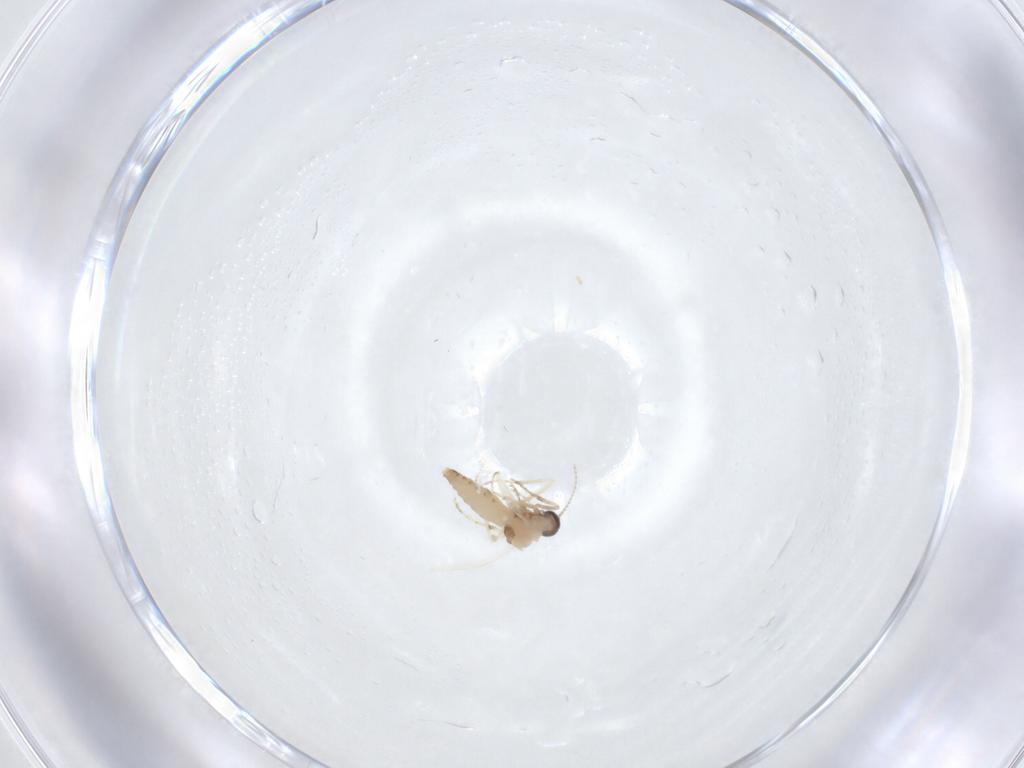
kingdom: Animalia
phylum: Arthropoda
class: Insecta
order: Diptera
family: Ceratopogonidae
